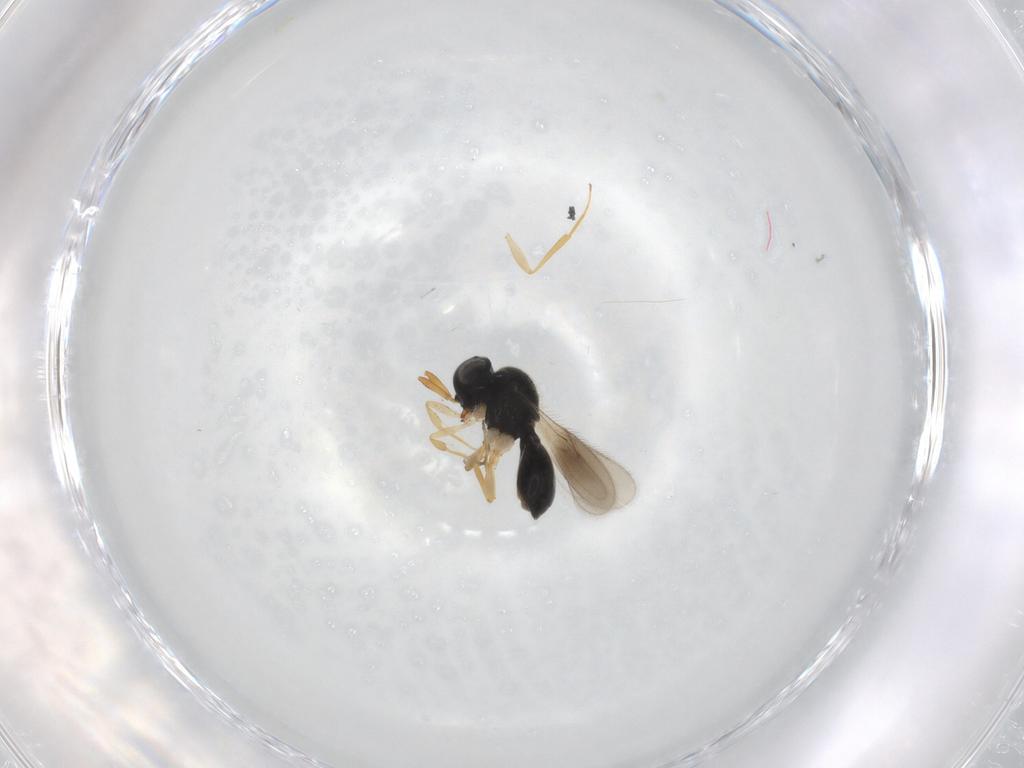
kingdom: Animalia
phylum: Arthropoda
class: Insecta
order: Hymenoptera
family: Scelionidae
